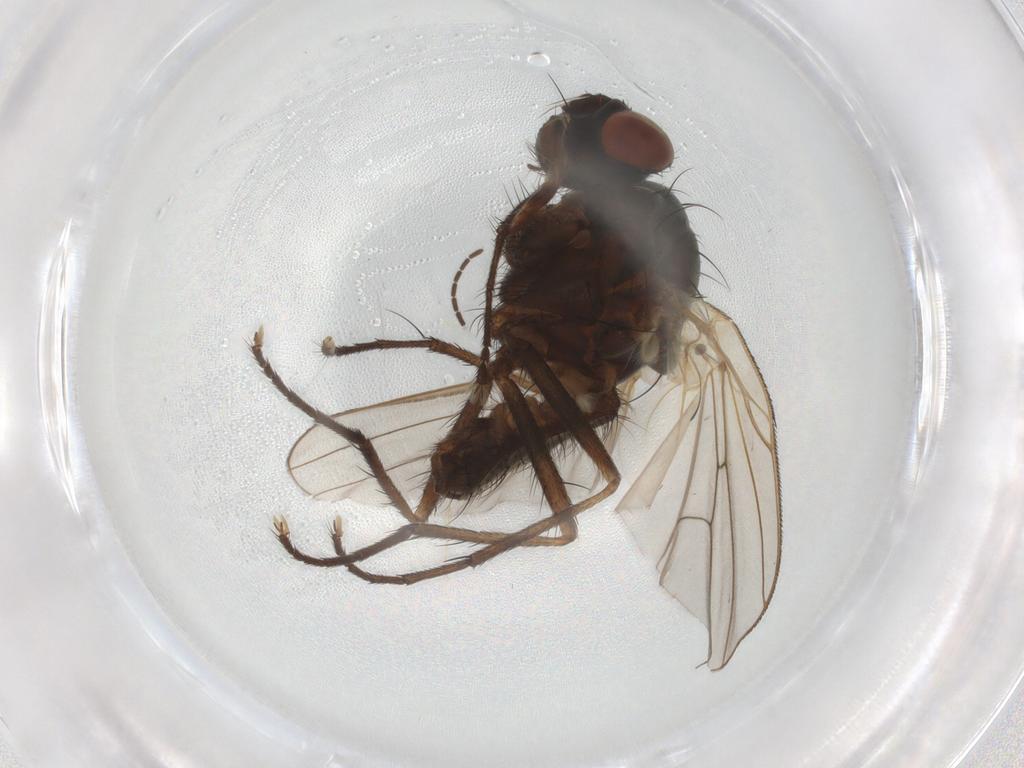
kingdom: Animalia
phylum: Arthropoda
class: Insecta
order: Diptera
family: Anthomyiidae
